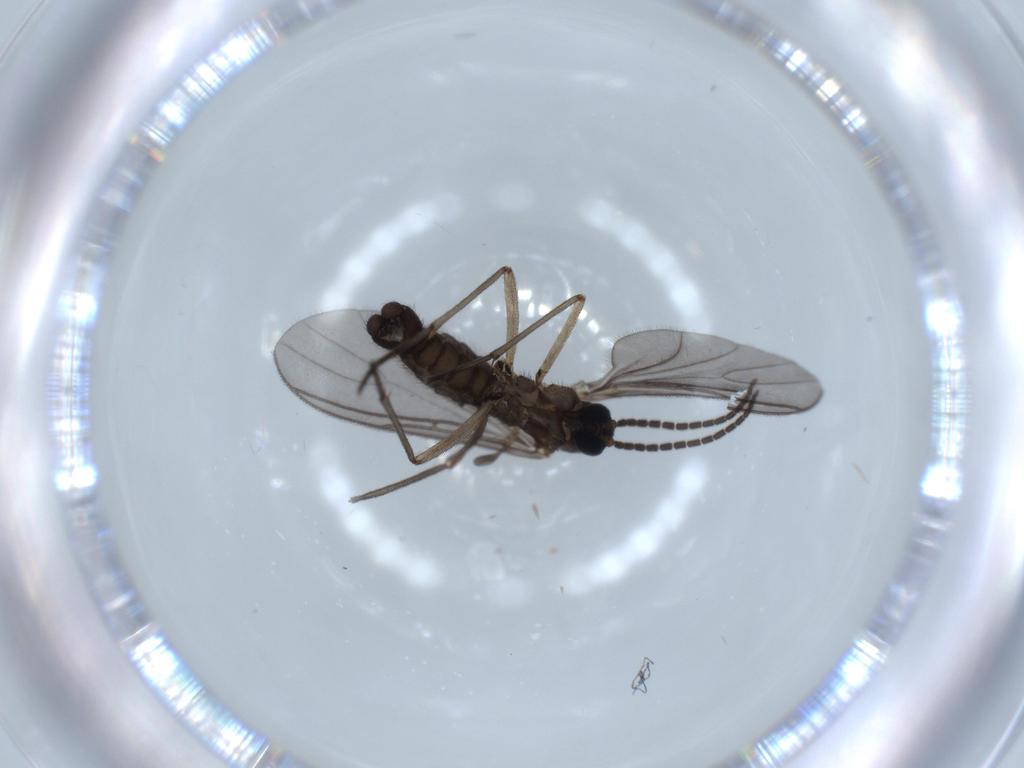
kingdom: Animalia
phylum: Arthropoda
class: Insecta
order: Diptera
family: Sciaridae
